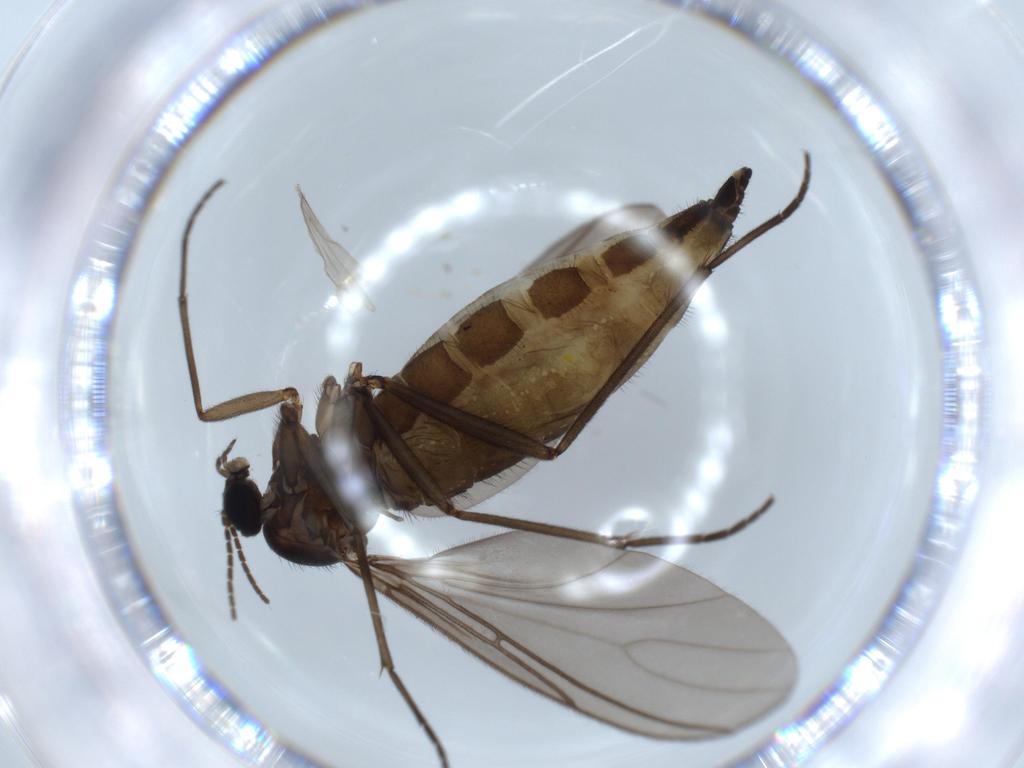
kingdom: Animalia
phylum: Arthropoda
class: Insecta
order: Diptera
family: Sciaridae
